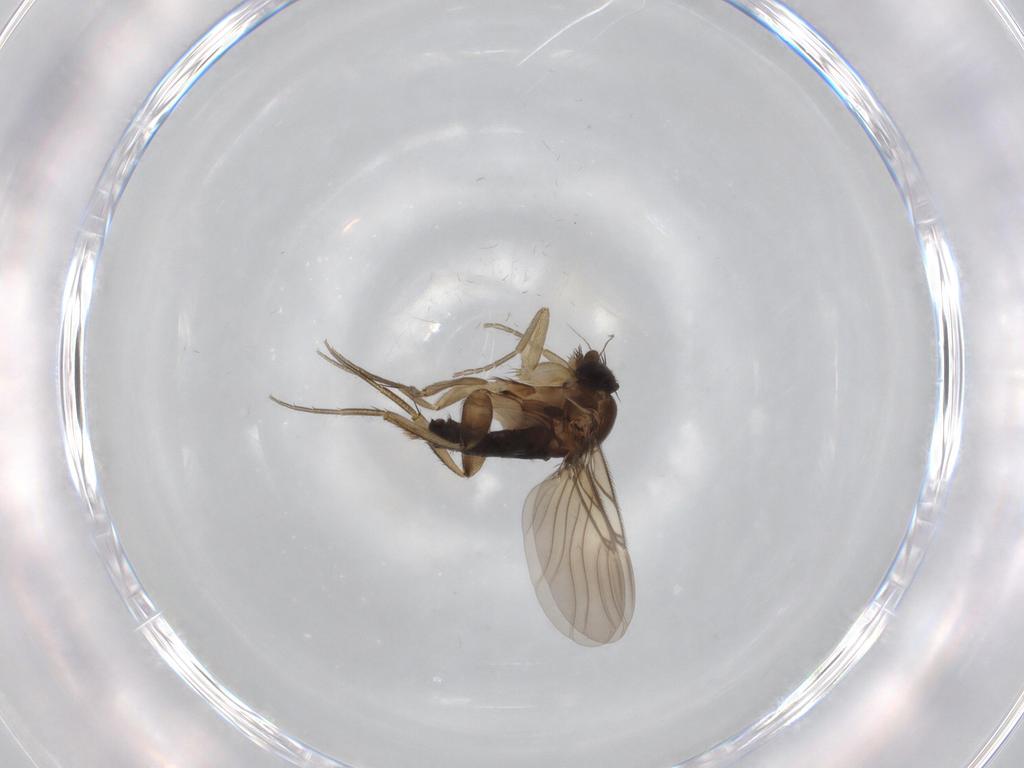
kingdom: Animalia
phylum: Arthropoda
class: Insecta
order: Diptera
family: Phoridae
